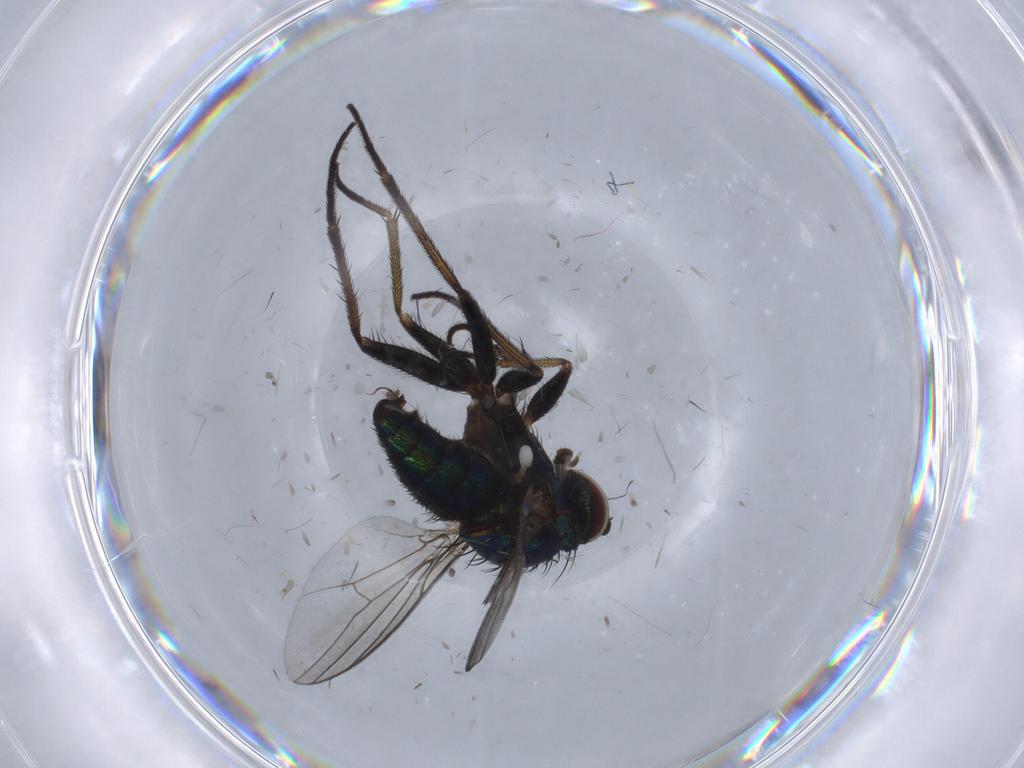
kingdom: Animalia
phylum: Arthropoda
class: Insecta
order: Diptera
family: Dolichopodidae
